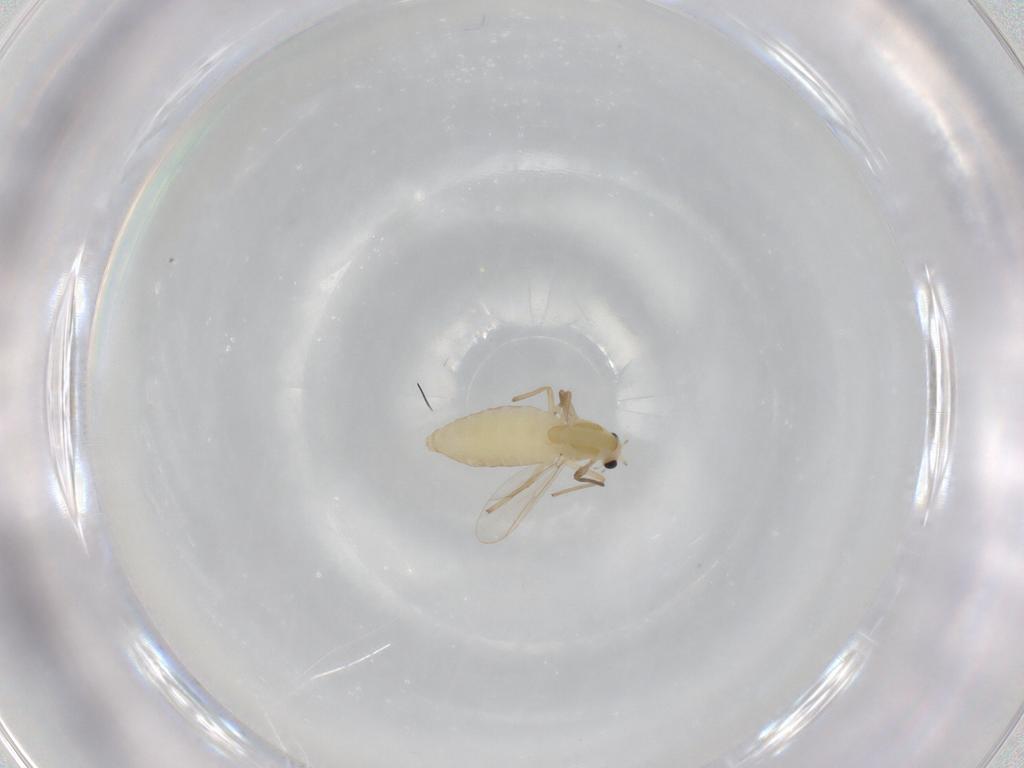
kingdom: Animalia
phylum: Arthropoda
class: Insecta
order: Diptera
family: Chironomidae
